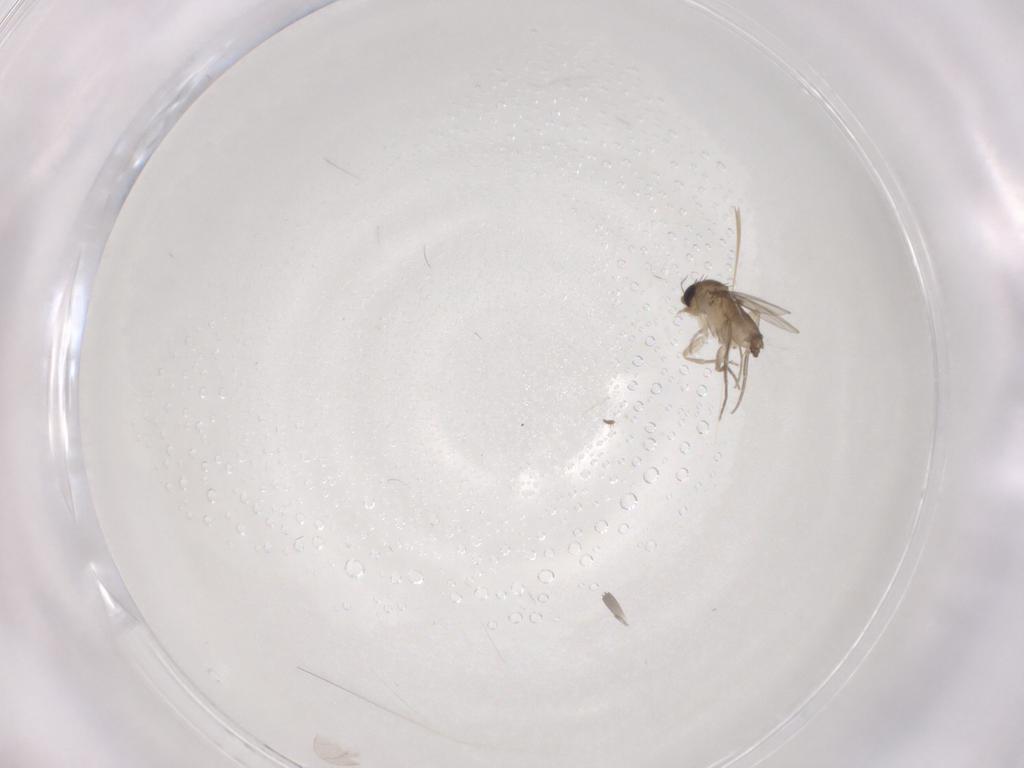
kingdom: Animalia
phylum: Arthropoda
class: Insecta
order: Diptera
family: Phoridae
